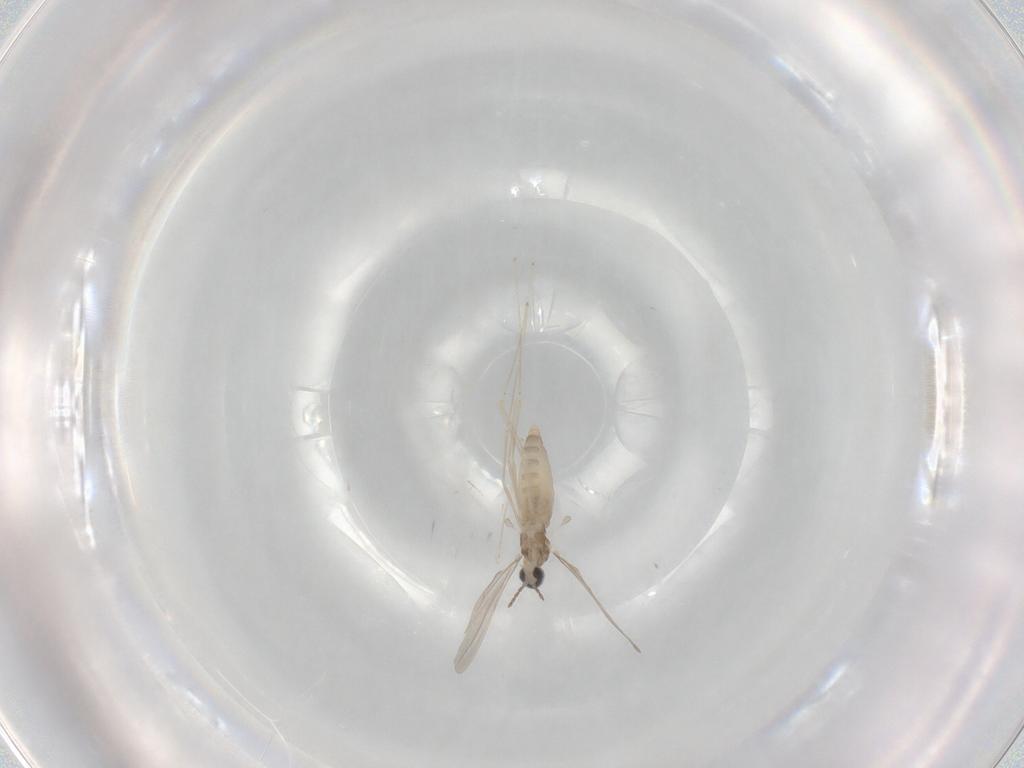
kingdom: Animalia
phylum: Arthropoda
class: Insecta
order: Diptera
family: Cecidomyiidae
